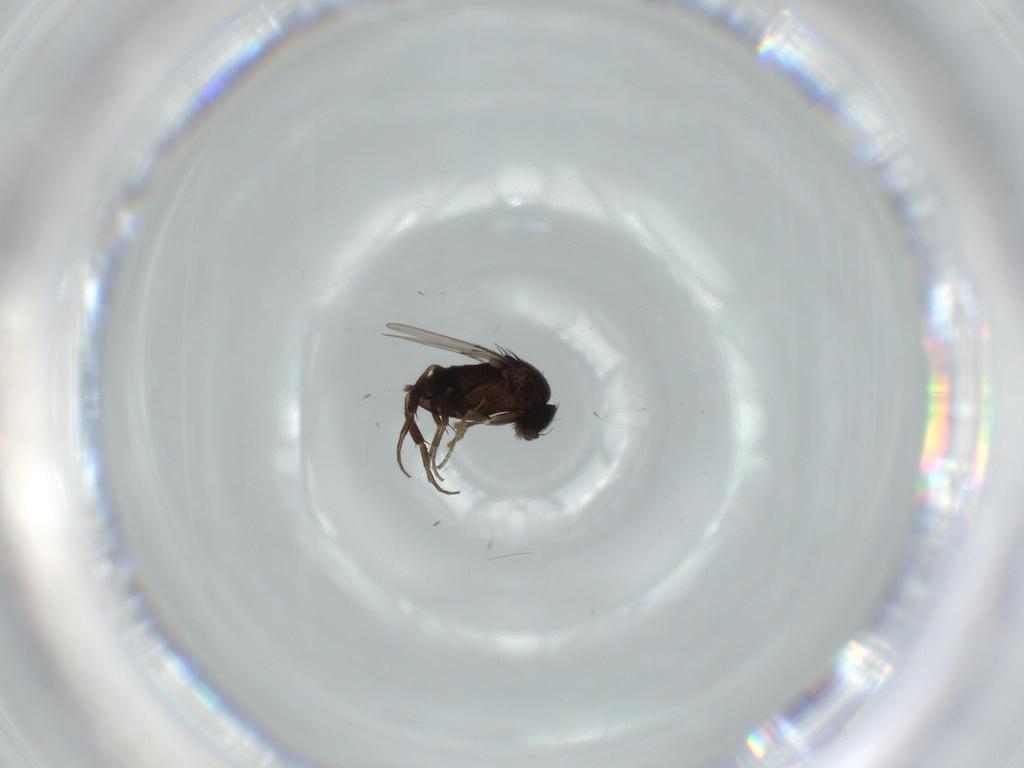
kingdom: Animalia
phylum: Arthropoda
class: Insecta
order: Diptera
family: Phoridae
